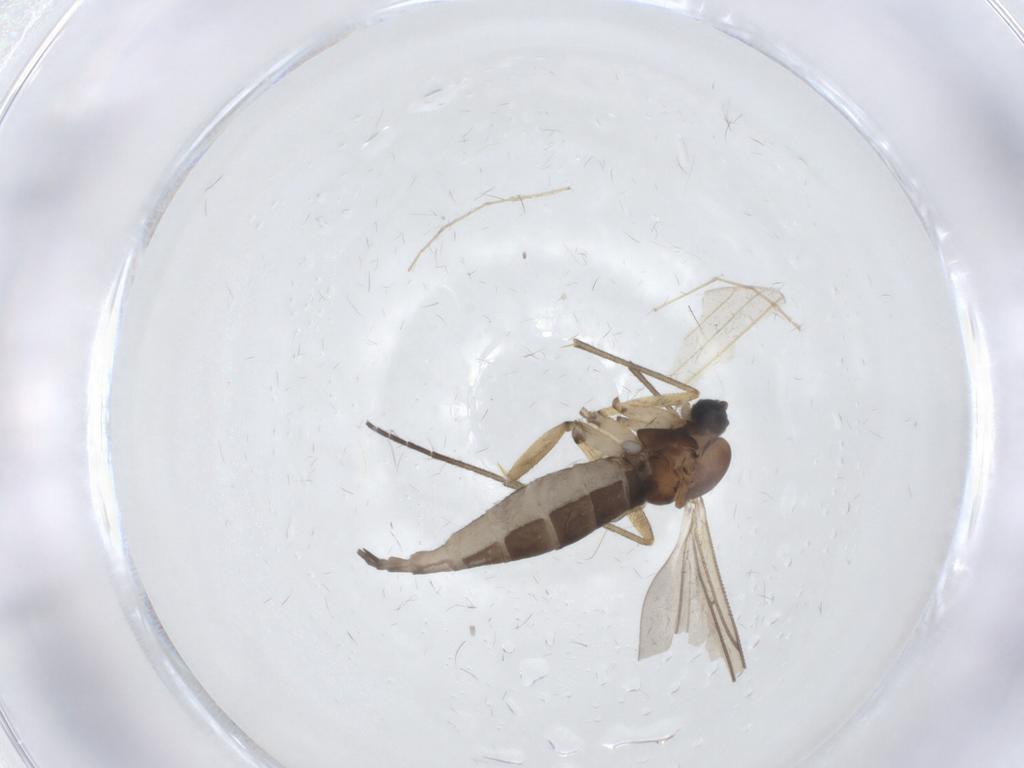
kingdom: Animalia
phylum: Arthropoda
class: Insecta
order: Diptera
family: Sciaridae
